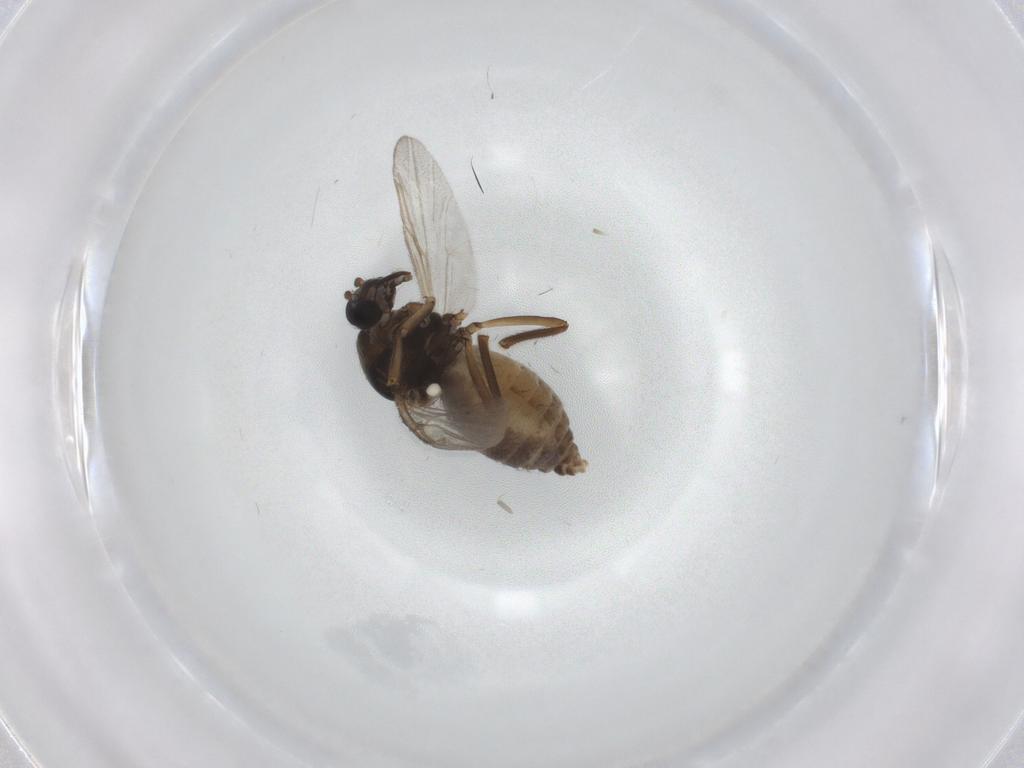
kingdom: Animalia
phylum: Arthropoda
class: Insecta
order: Diptera
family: Ceratopogonidae
